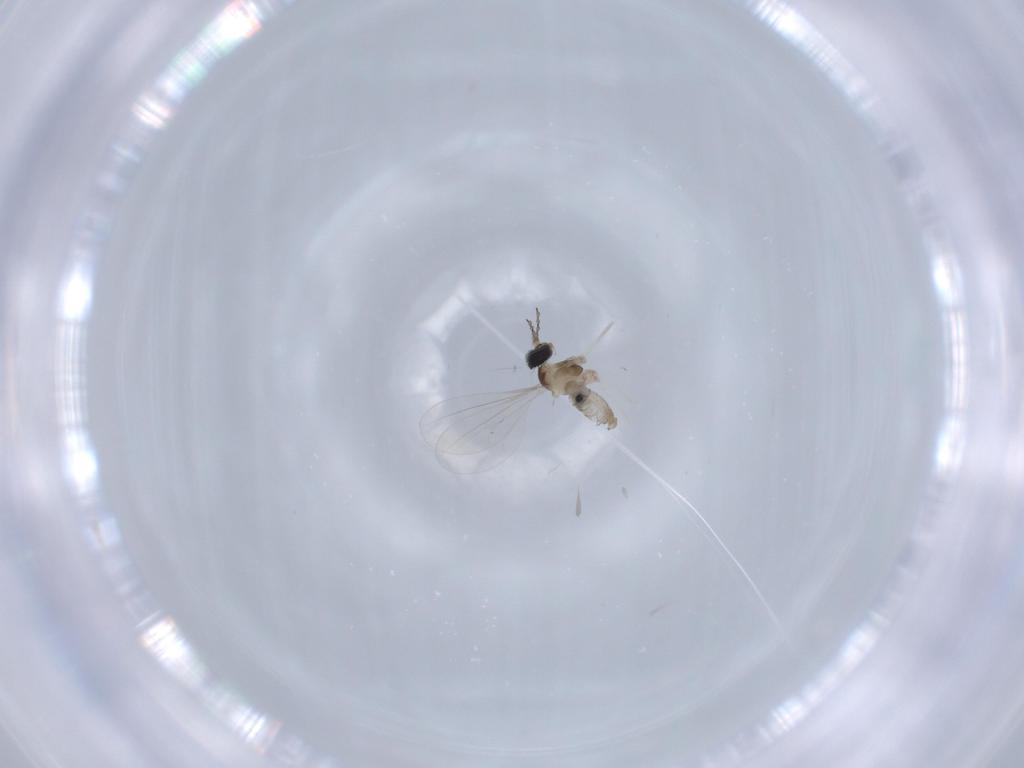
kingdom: Animalia
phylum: Arthropoda
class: Insecta
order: Diptera
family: Cecidomyiidae
